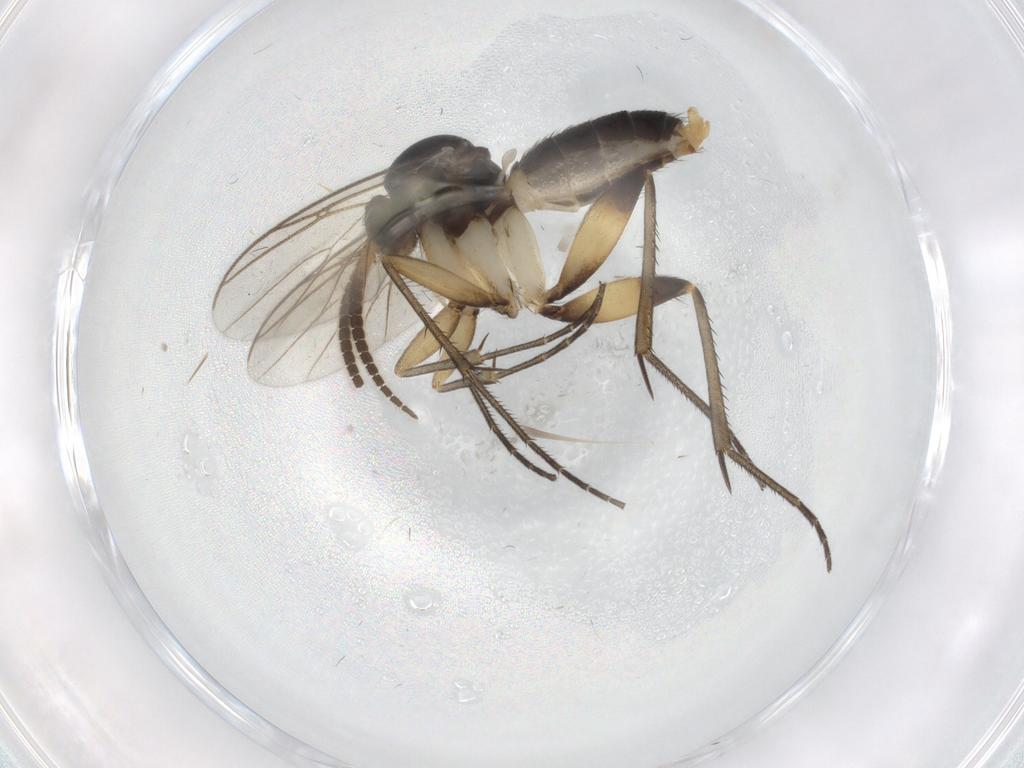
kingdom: Animalia
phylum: Arthropoda
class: Insecta
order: Diptera
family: Mycetophilidae
